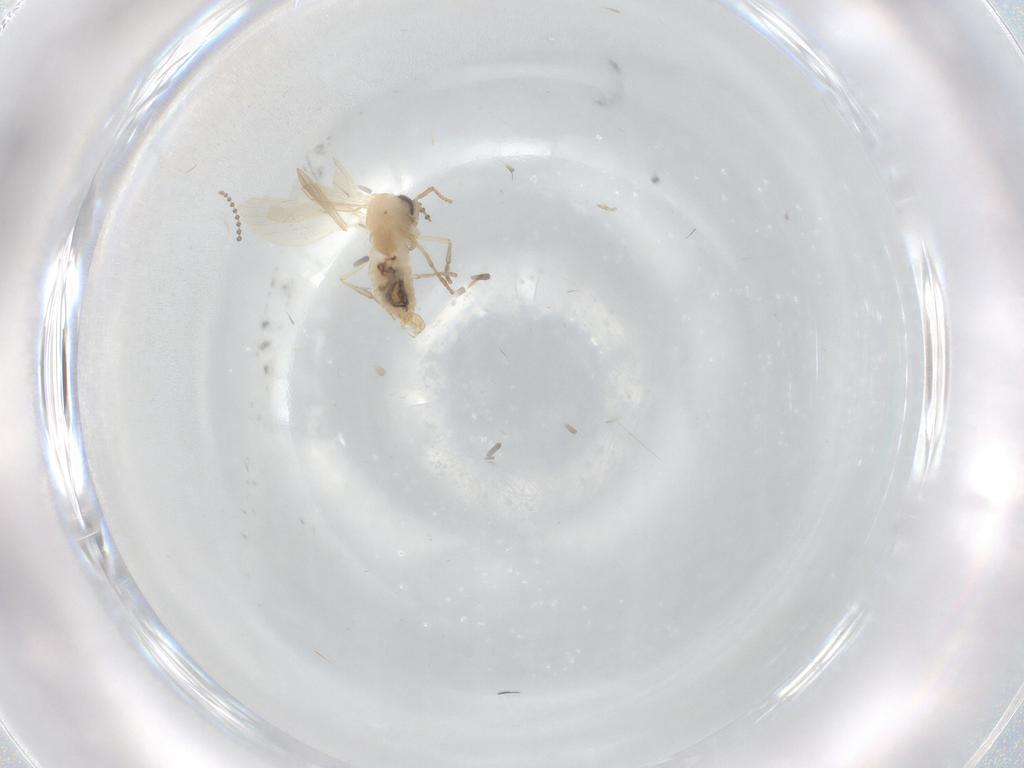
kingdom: Animalia
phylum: Arthropoda
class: Insecta
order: Diptera
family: Psychodidae
